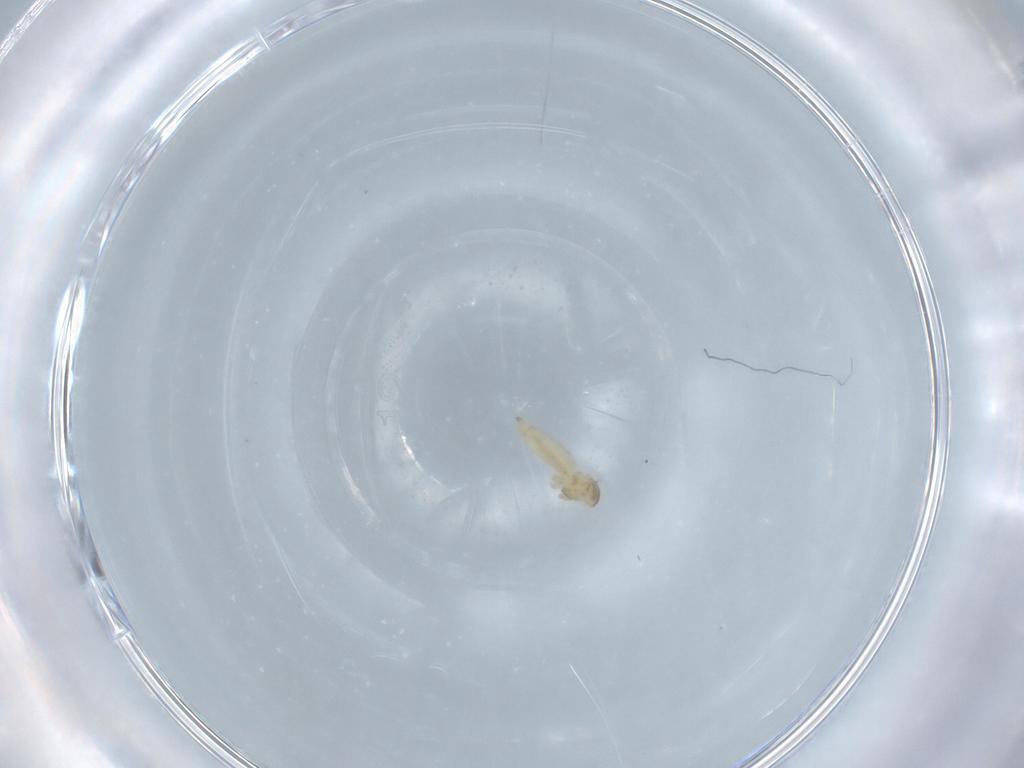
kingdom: Animalia
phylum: Arthropoda
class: Insecta
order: Diptera
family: Cecidomyiidae
